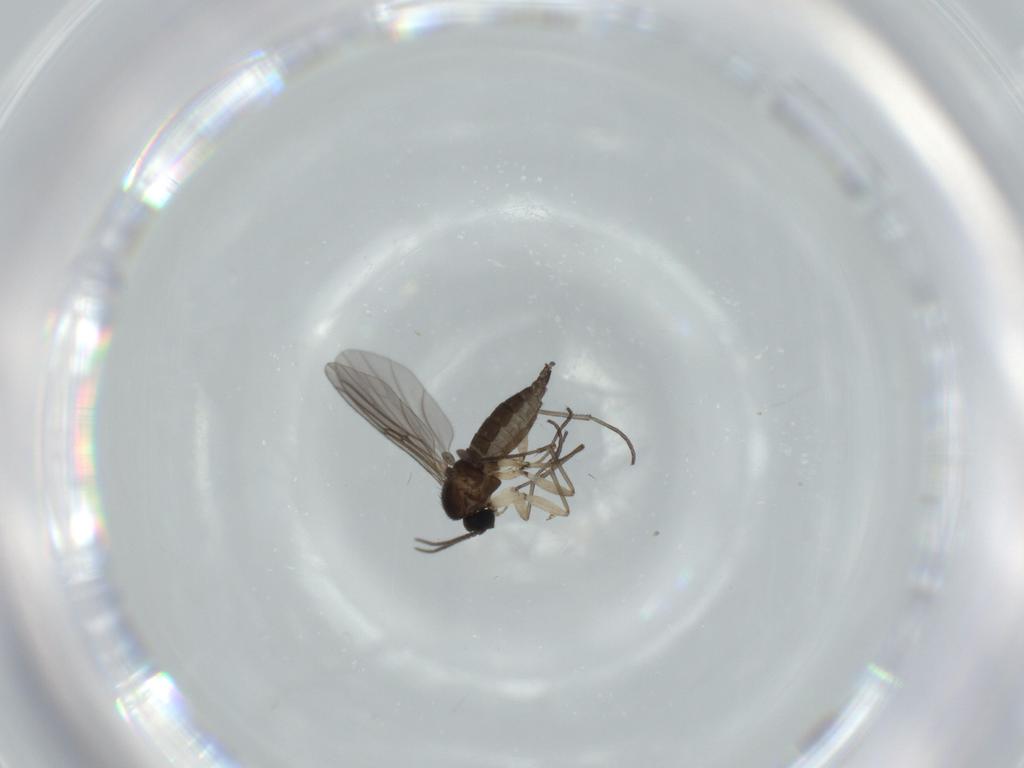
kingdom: Animalia
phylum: Arthropoda
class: Insecta
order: Diptera
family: Sciaridae
